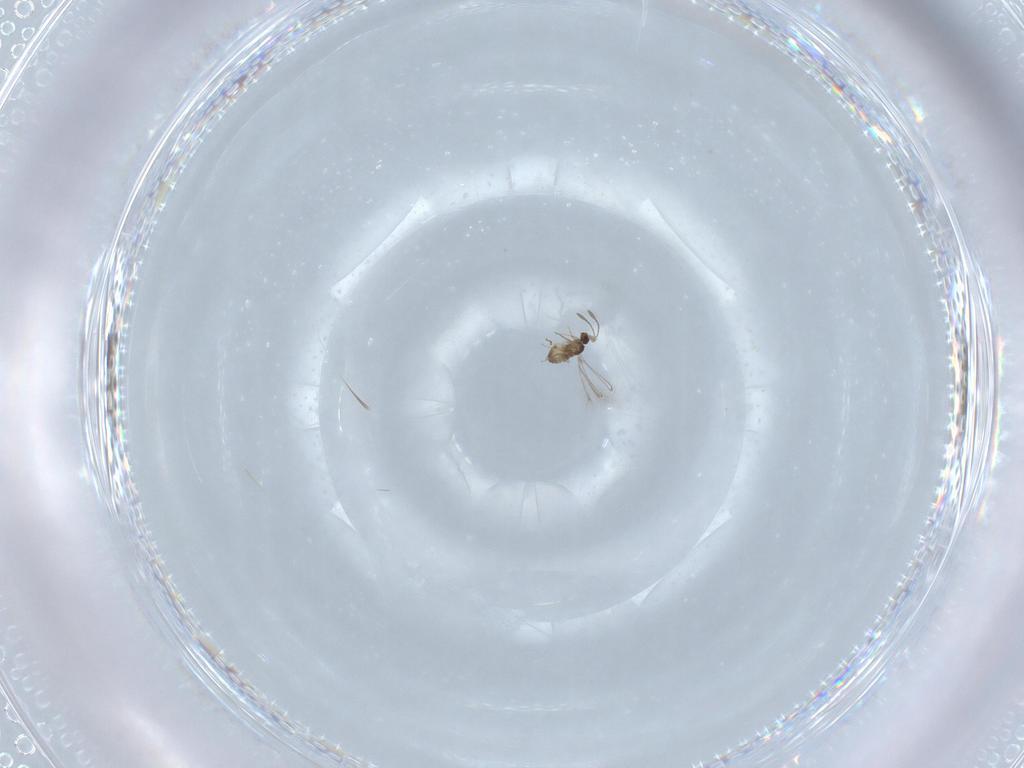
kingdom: Animalia
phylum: Arthropoda
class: Insecta
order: Hymenoptera
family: Mymaridae
